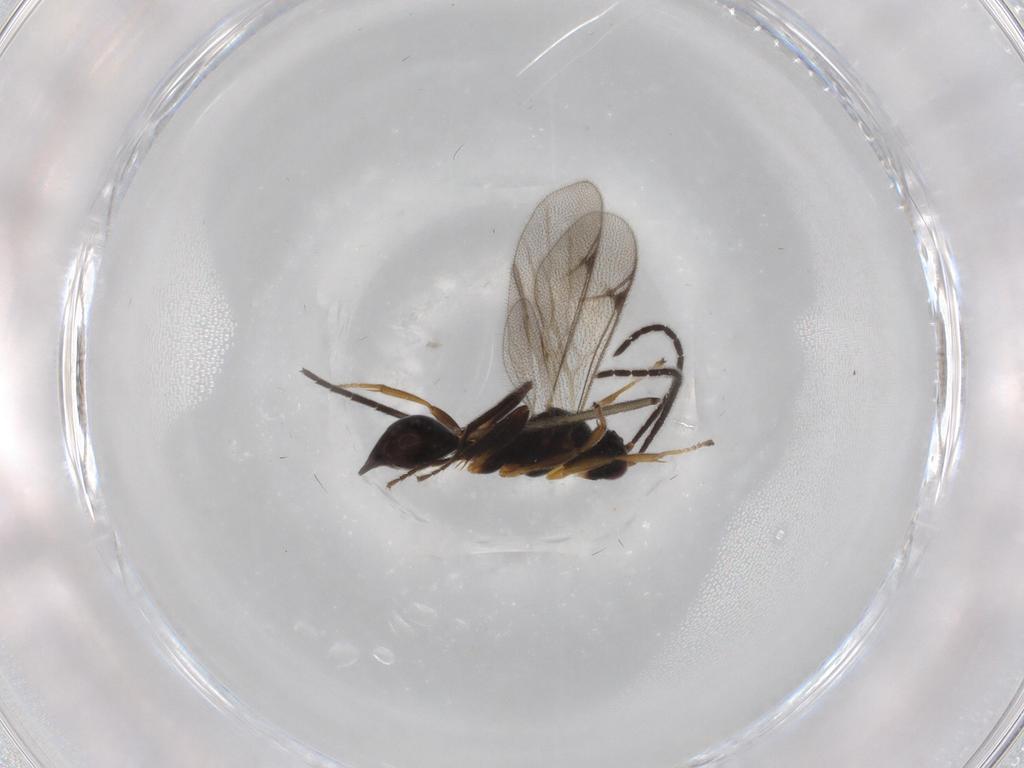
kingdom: Animalia
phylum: Arthropoda
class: Insecta
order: Hymenoptera
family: Proctotrupidae
